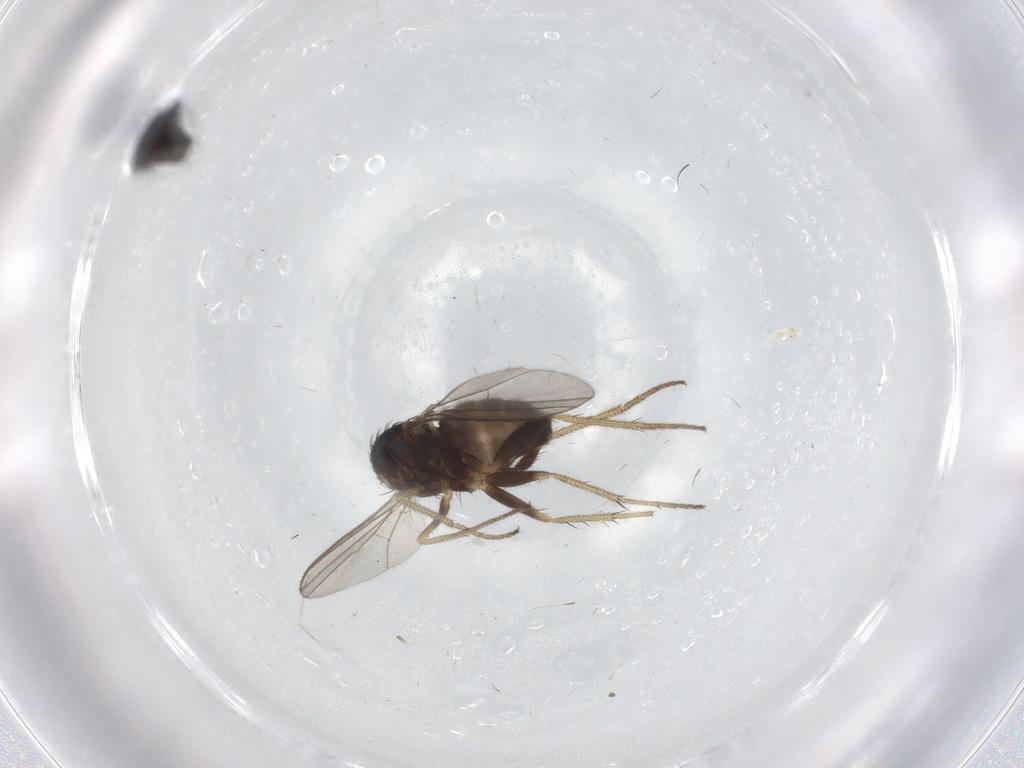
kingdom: Animalia
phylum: Arthropoda
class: Insecta
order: Diptera
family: Cecidomyiidae
